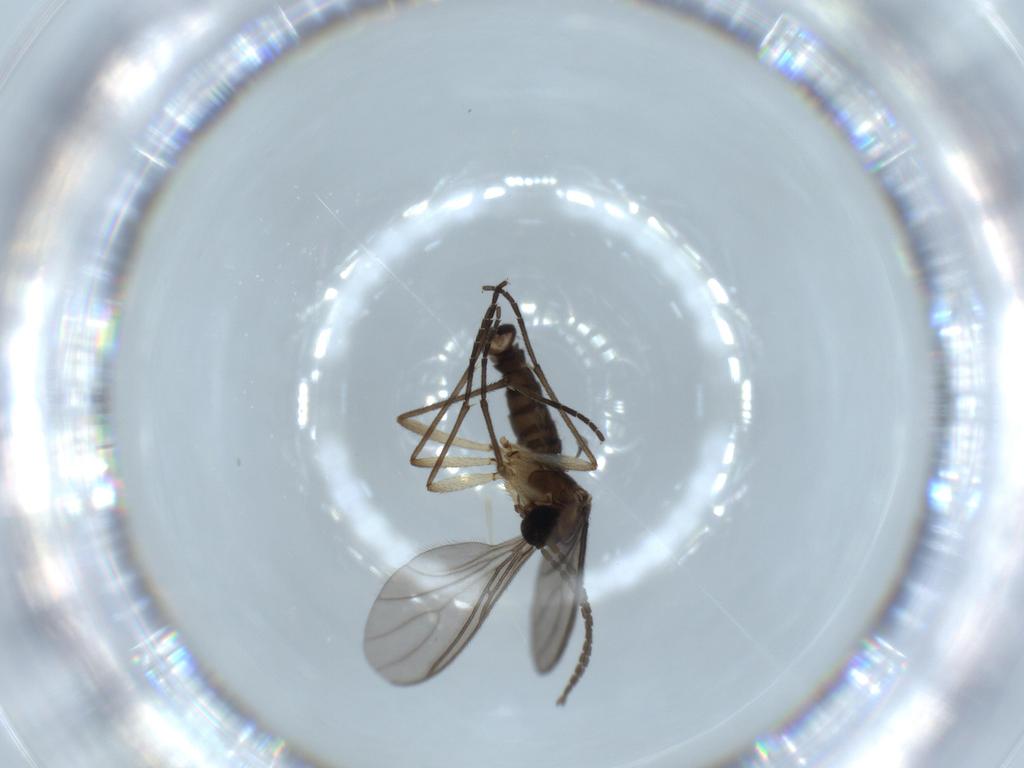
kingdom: Animalia
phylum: Arthropoda
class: Insecta
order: Diptera
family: Sciaridae
